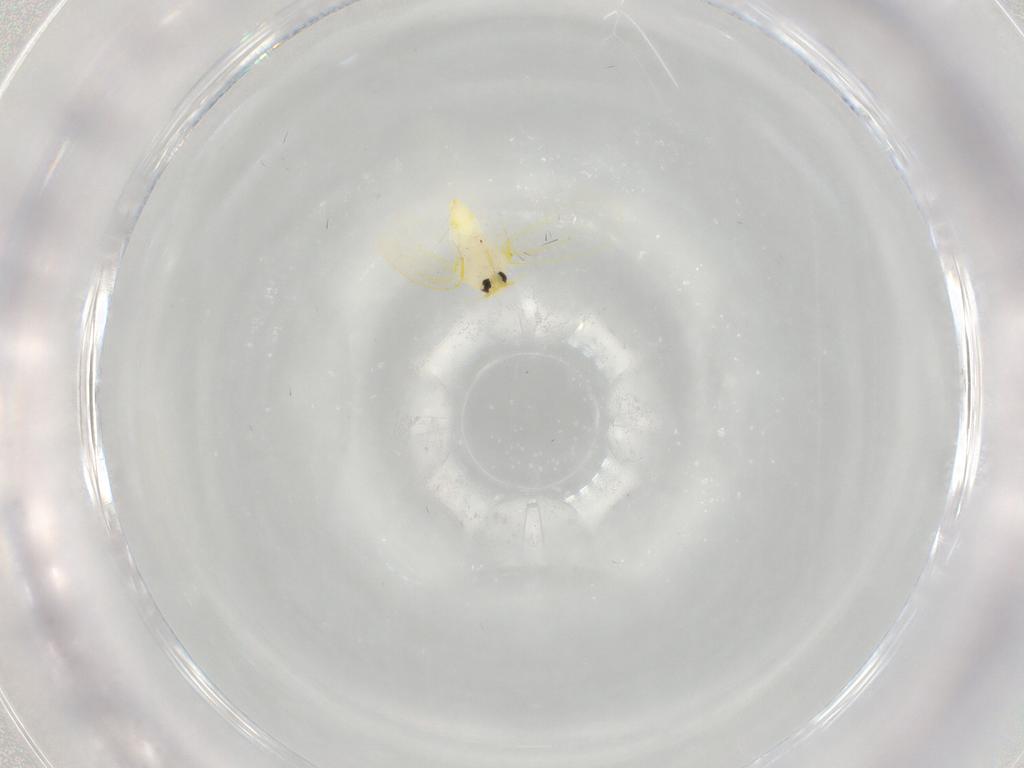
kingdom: Animalia
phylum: Arthropoda
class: Insecta
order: Hemiptera
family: Aleyrodidae
